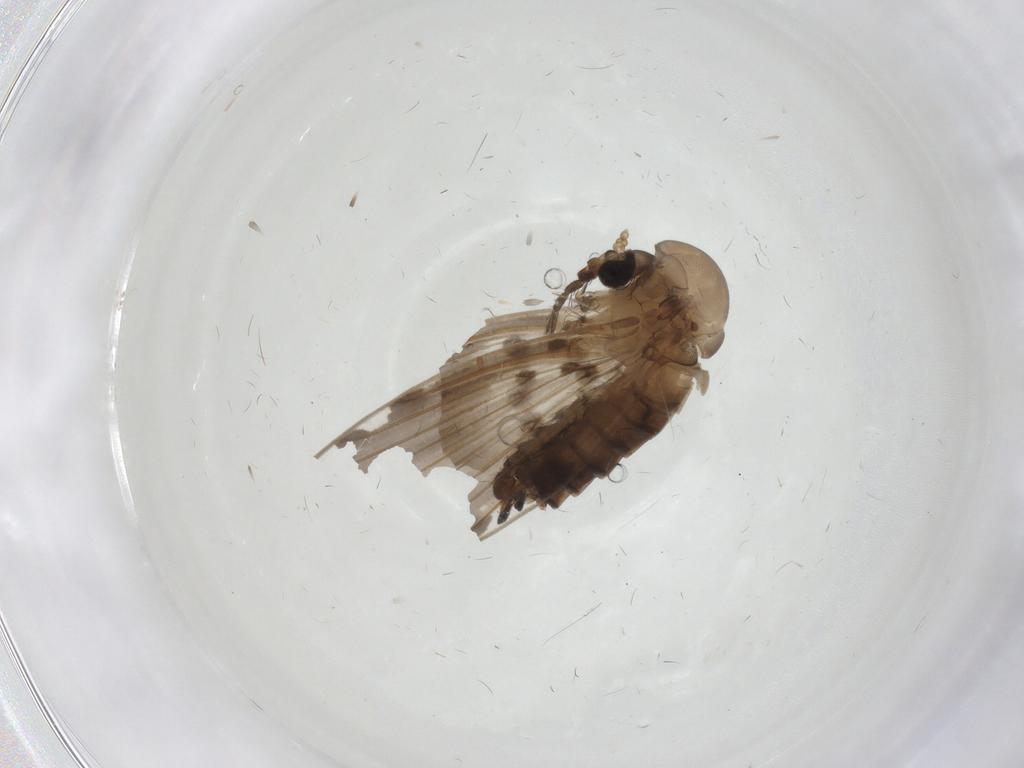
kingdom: Animalia
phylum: Arthropoda
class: Insecta
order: Diptera
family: Psychodidae
